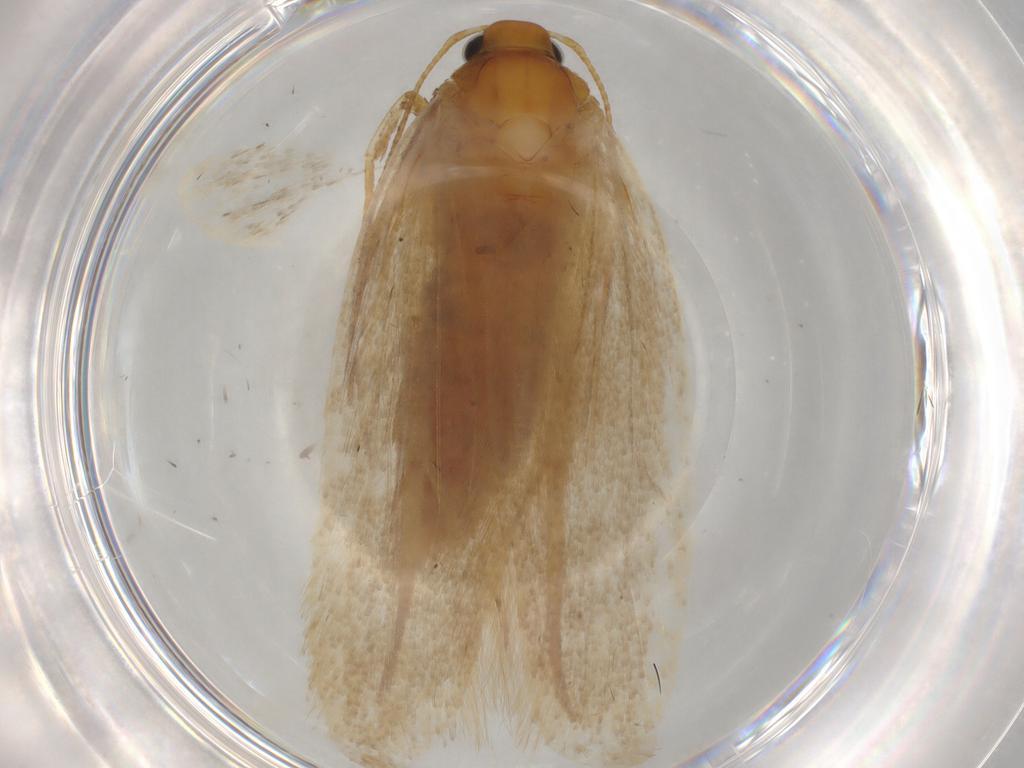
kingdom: Animalia
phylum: Arthropoda
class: Insecta
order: Lepidoptera
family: Gelechiidae
